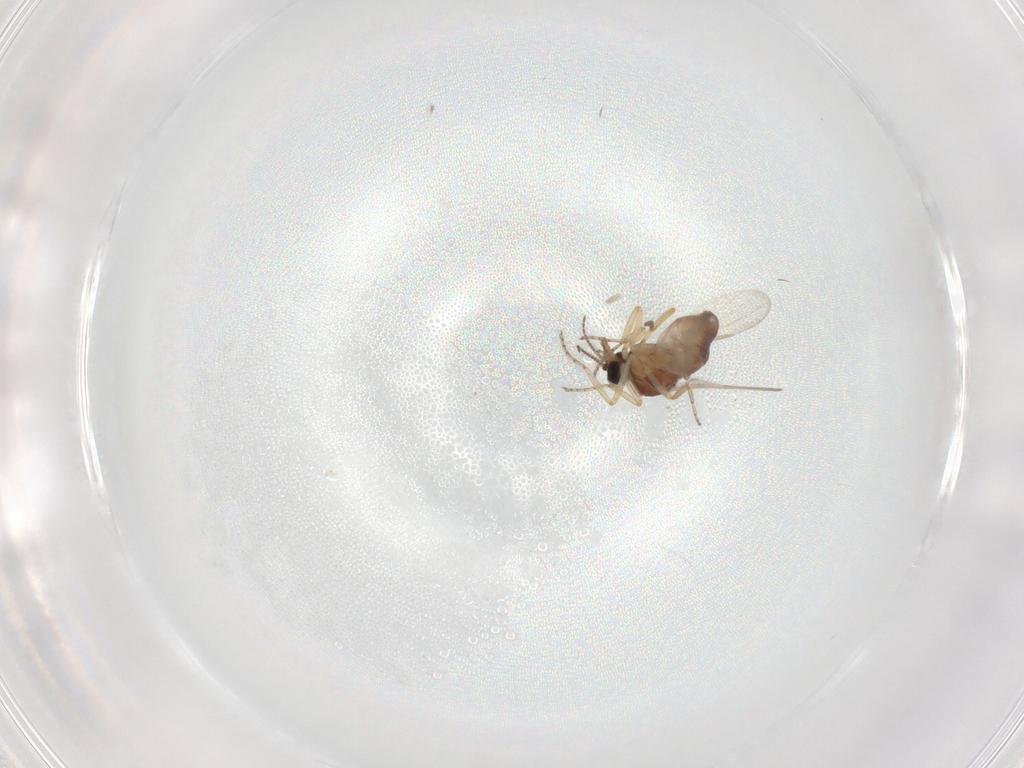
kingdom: Animalia
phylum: Arthropoda
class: Insecta
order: Diptera
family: Ceratopogonidae
